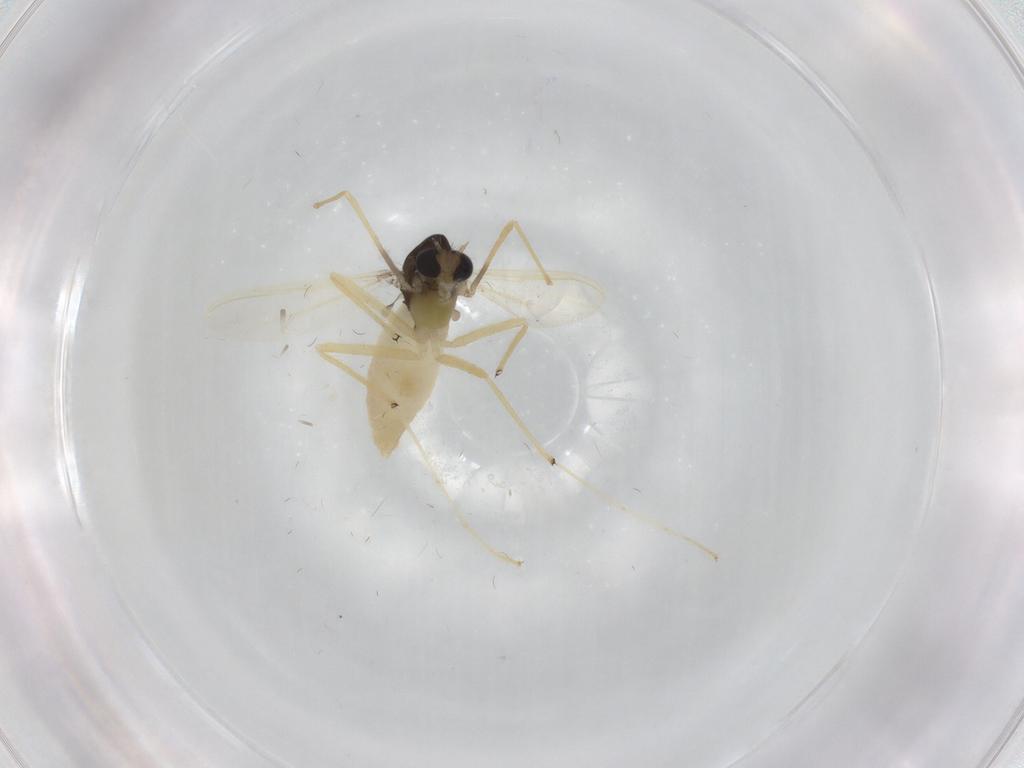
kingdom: Animalia
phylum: Arthropoda
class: Insecta
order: Diptera
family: Chironomidae
